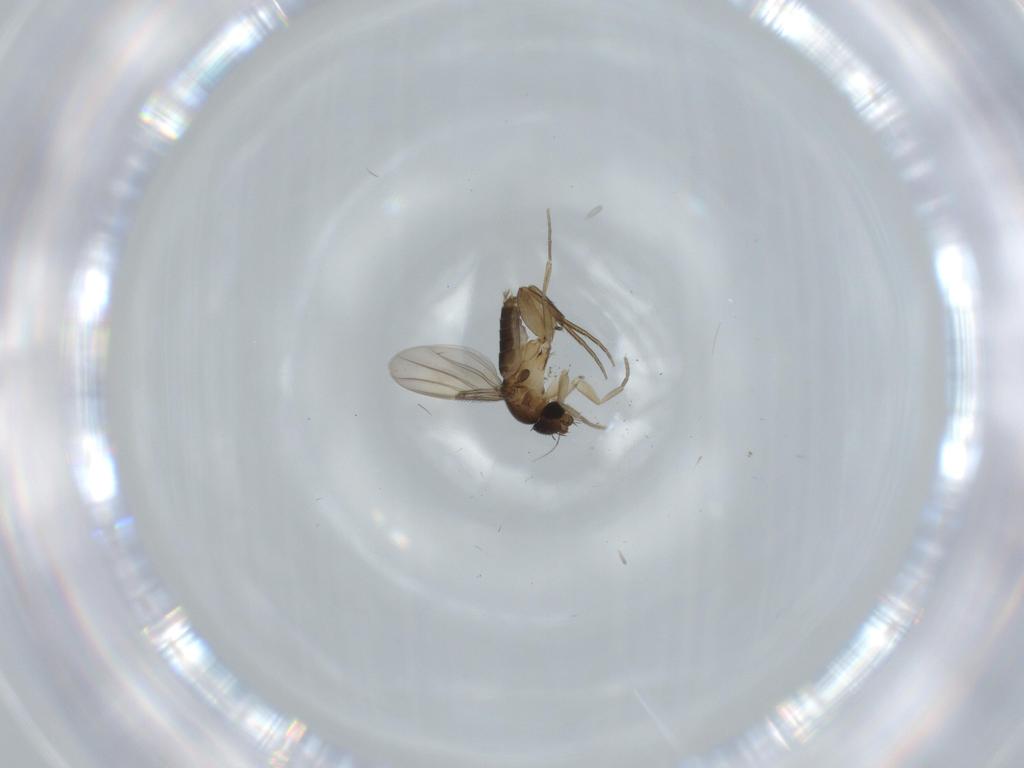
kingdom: Animalia
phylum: Arthropoda
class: Insecta
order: Diptera
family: Phoridae
